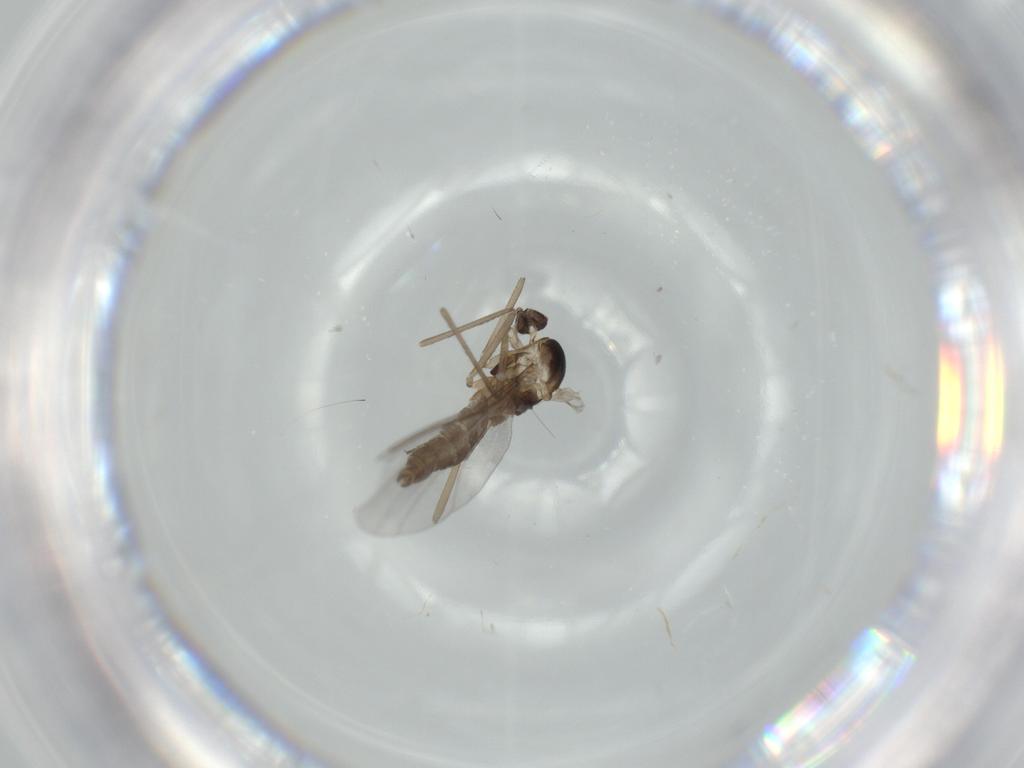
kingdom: Animalia
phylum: Arthropoda
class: Insecta
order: Diptera
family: Cecidomyiidae
